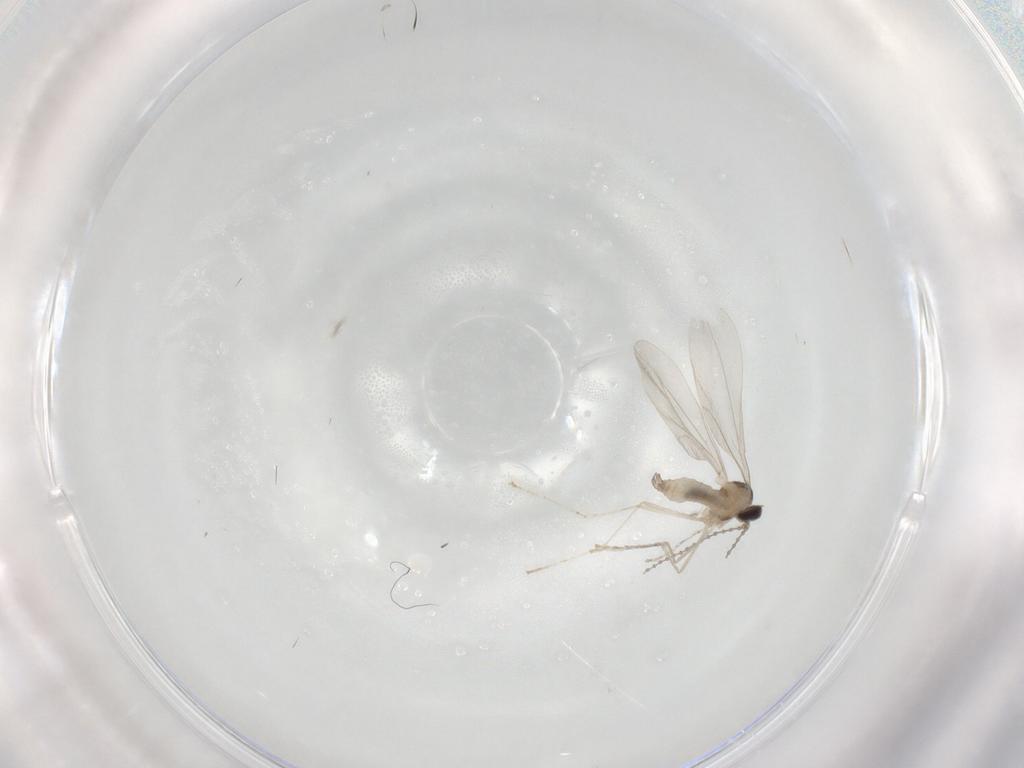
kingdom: Animalia
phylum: Arthropoda
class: Insecta
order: Diptera
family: Cecidomyiidae
